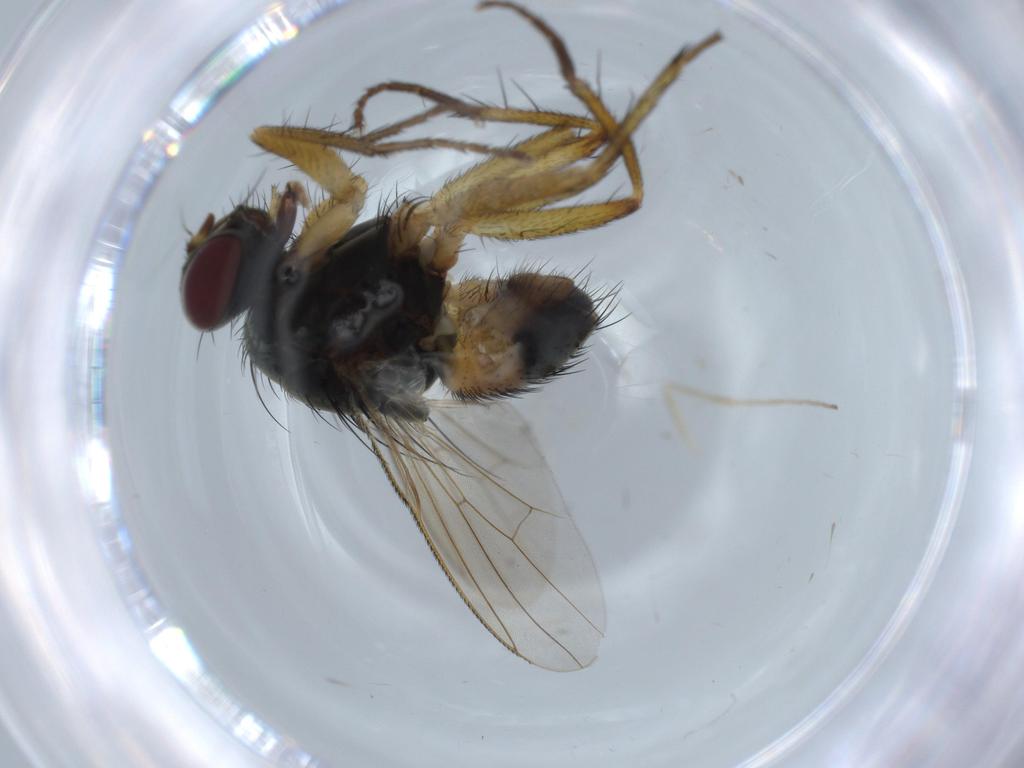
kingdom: Animalia
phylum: Arthropoda
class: Insecta
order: Diptera
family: Muscidae
